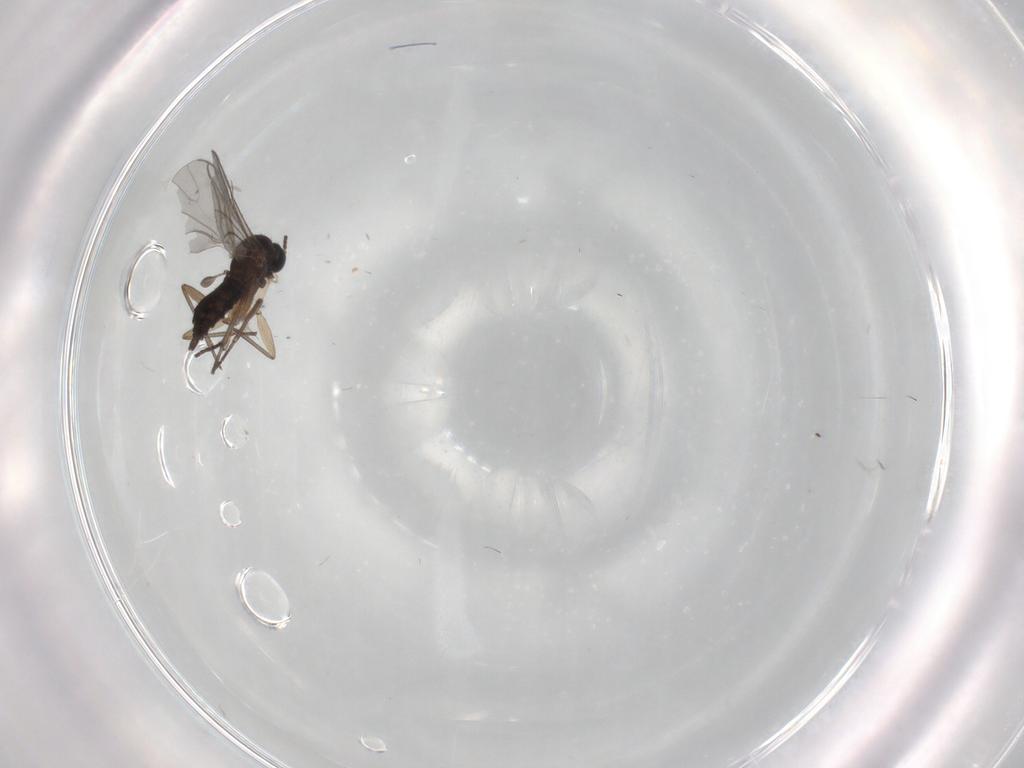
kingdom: Animalia
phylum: Arthropoda
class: Insecta
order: Diptera
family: Sciaridae
